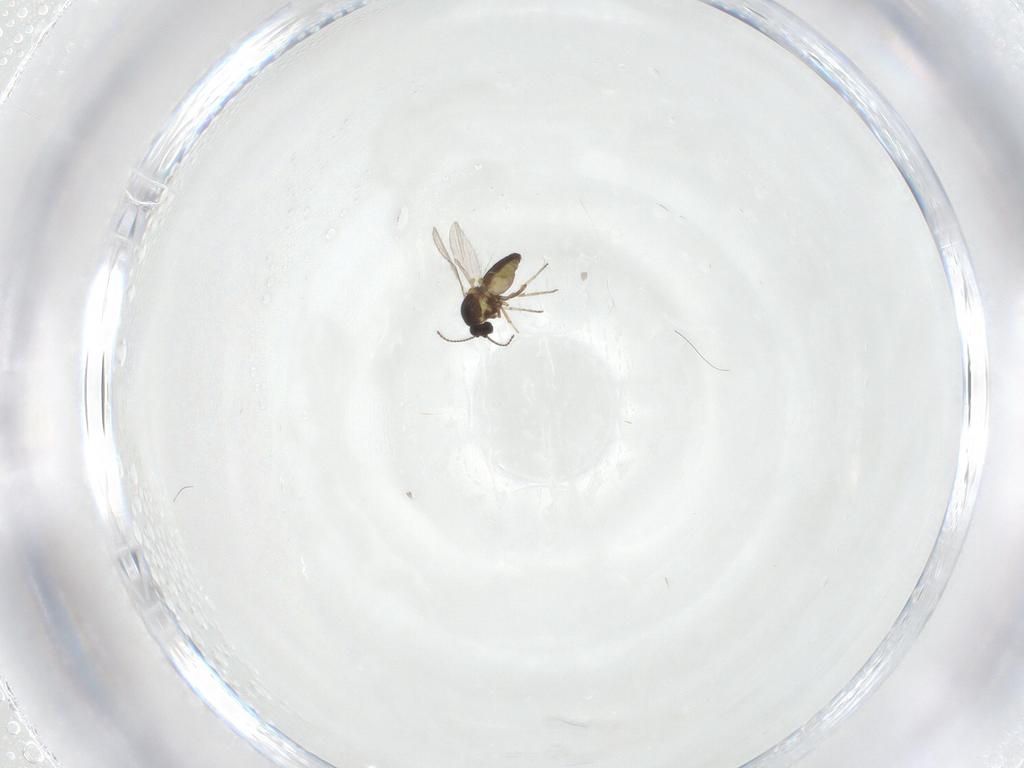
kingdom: Animalia
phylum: Arthropoda
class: Insecta
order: Diptera
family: Ceratopogonidae
